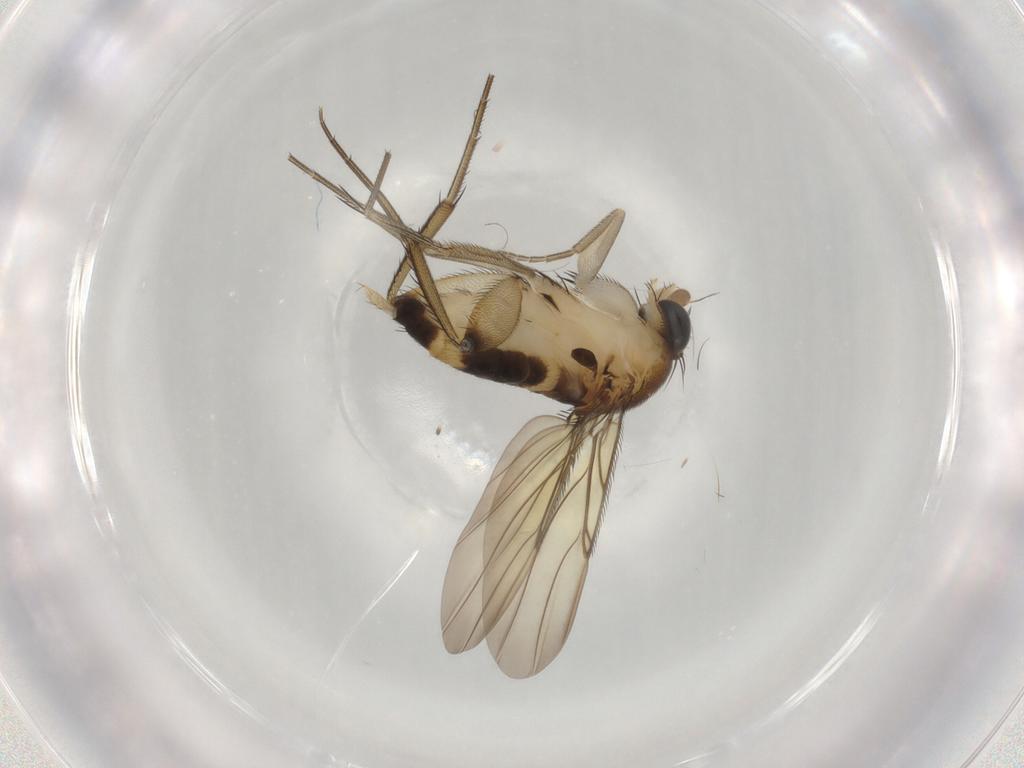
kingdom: Animalia
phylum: Arthropoda
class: Insecta
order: Diptera
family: Phoridae
